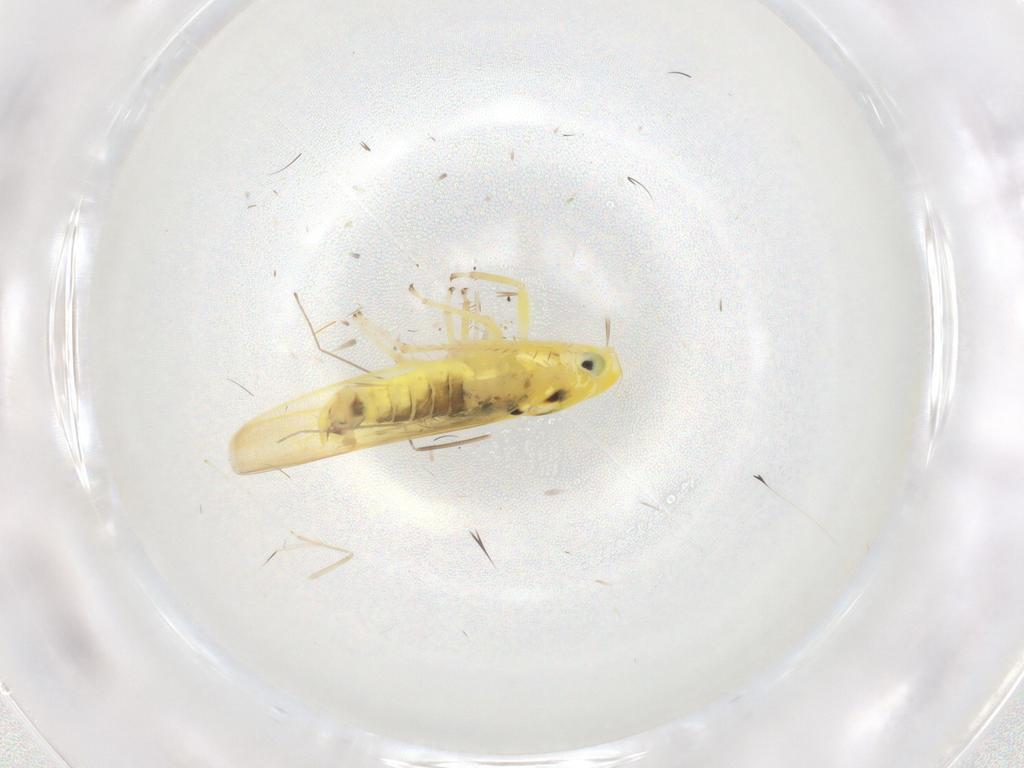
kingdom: Animalia
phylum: Arthropoda
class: Insecta
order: Hemiptera
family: Cicadellidae
